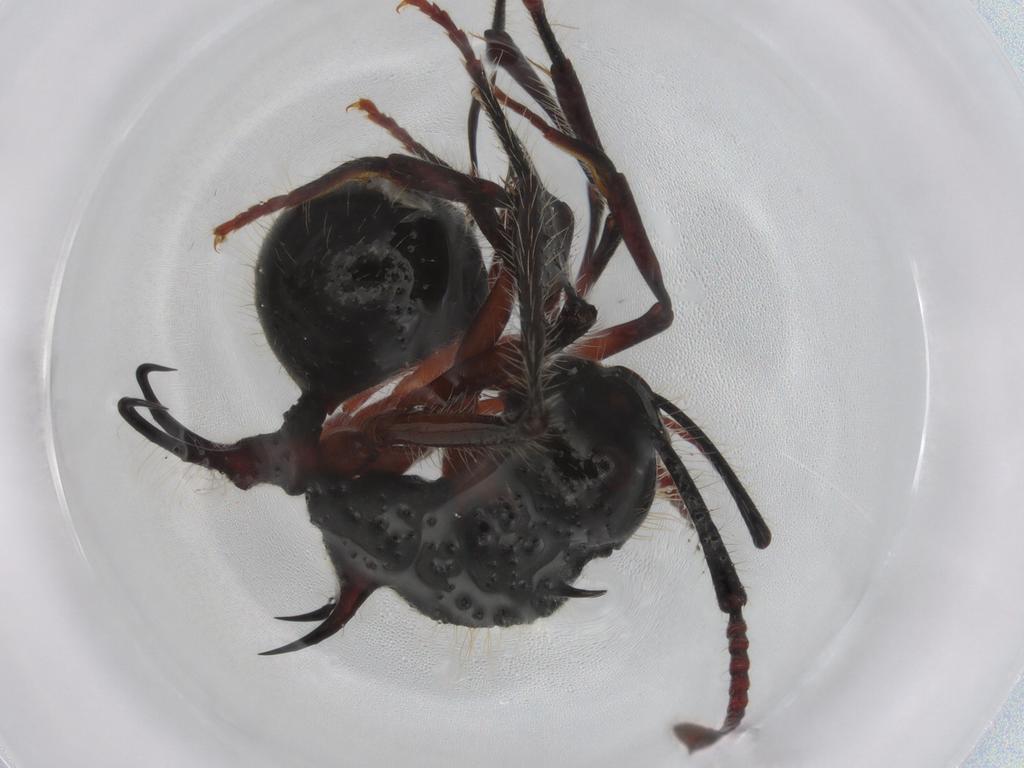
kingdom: Animalia
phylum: Arthropoda
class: Insecta
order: Hymenoptera
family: Formicidae
